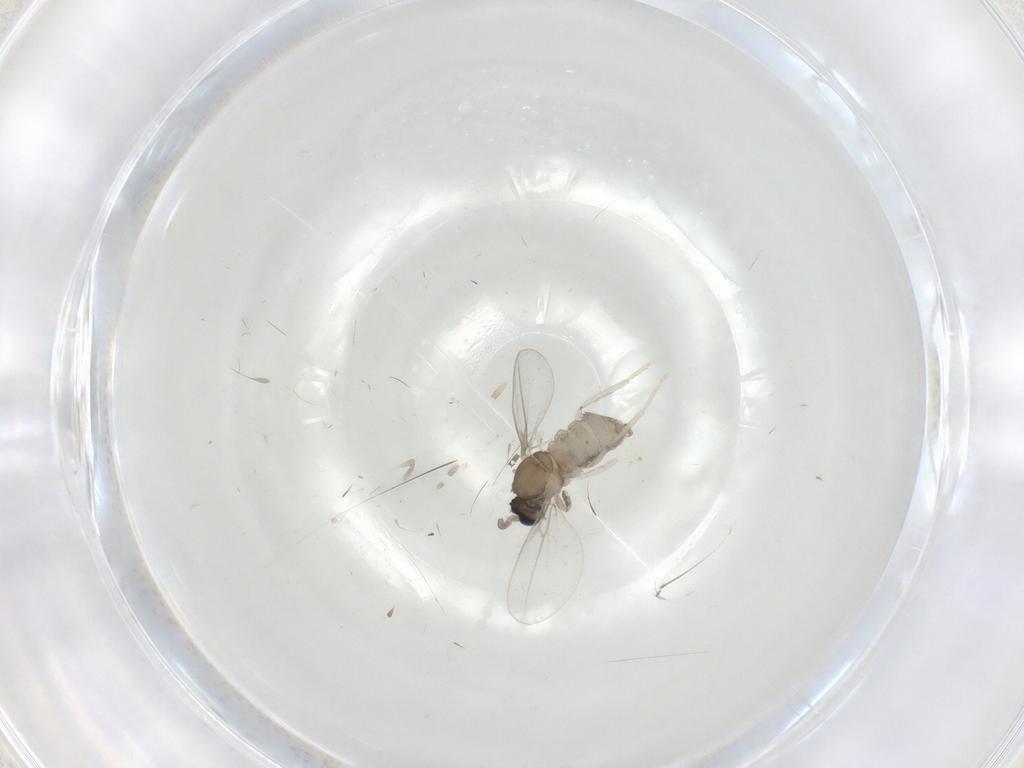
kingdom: Animalia
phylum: Arthropoda
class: Insecta
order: Diptera
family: Cecidomyiidae
